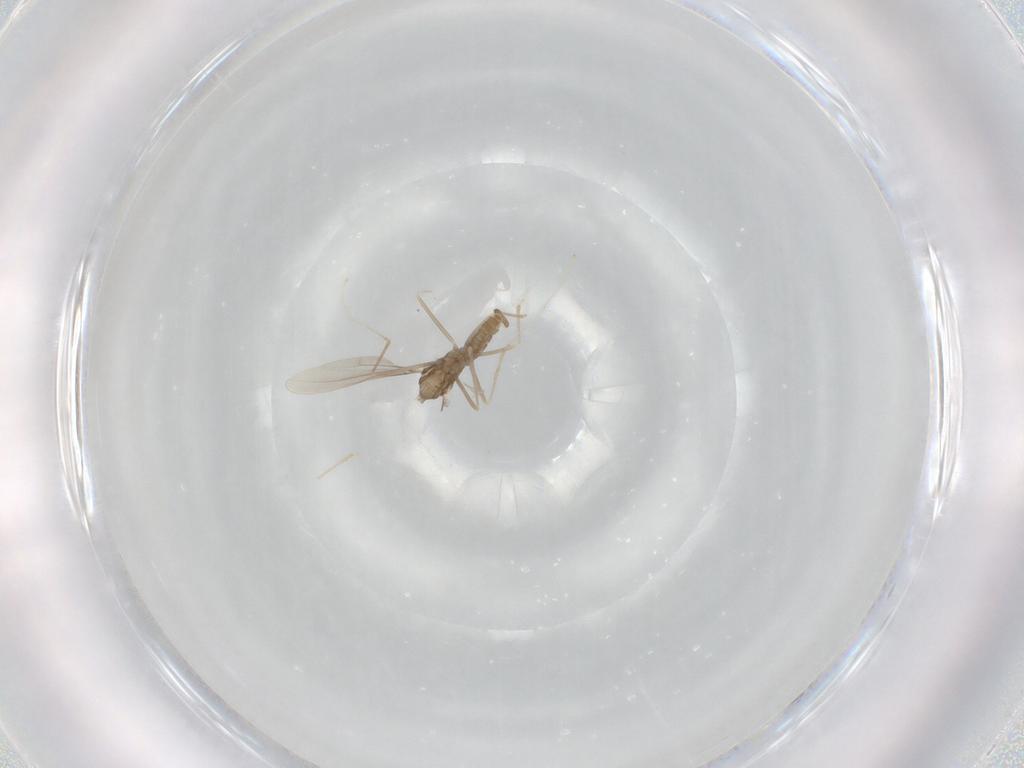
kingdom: Animalia
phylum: Arthropoda
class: Insecta
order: Diptera
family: Cecidomyiidae
